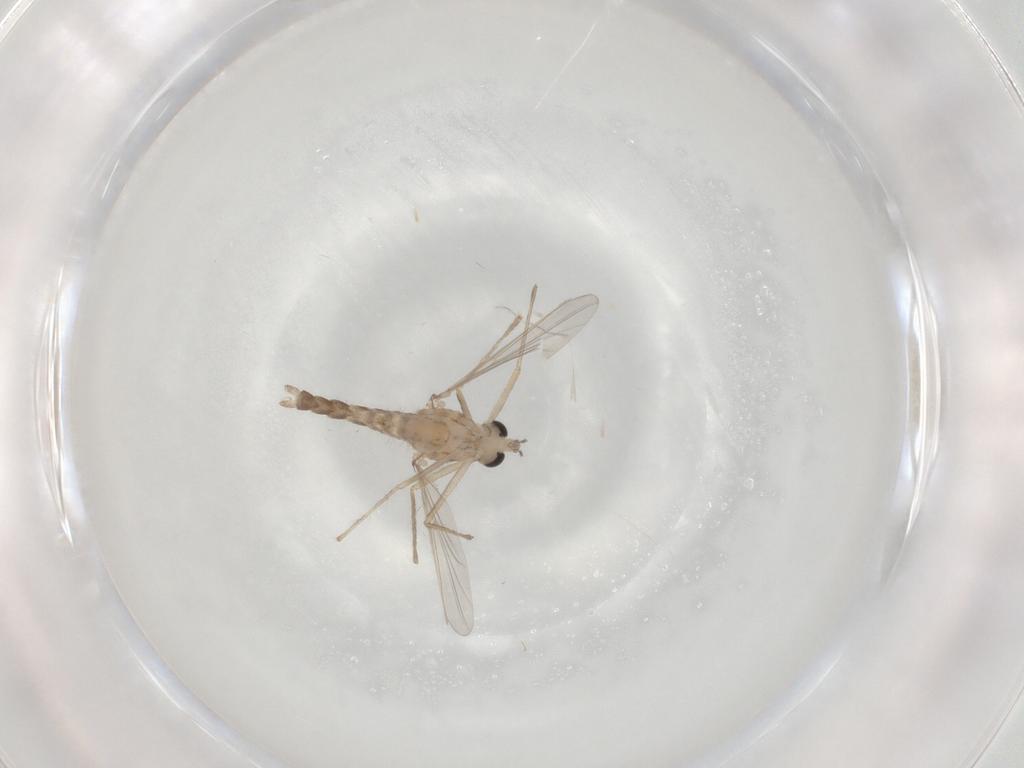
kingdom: Animalia
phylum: Arthropoda
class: Insecta
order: Diptera
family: Chironomidae
